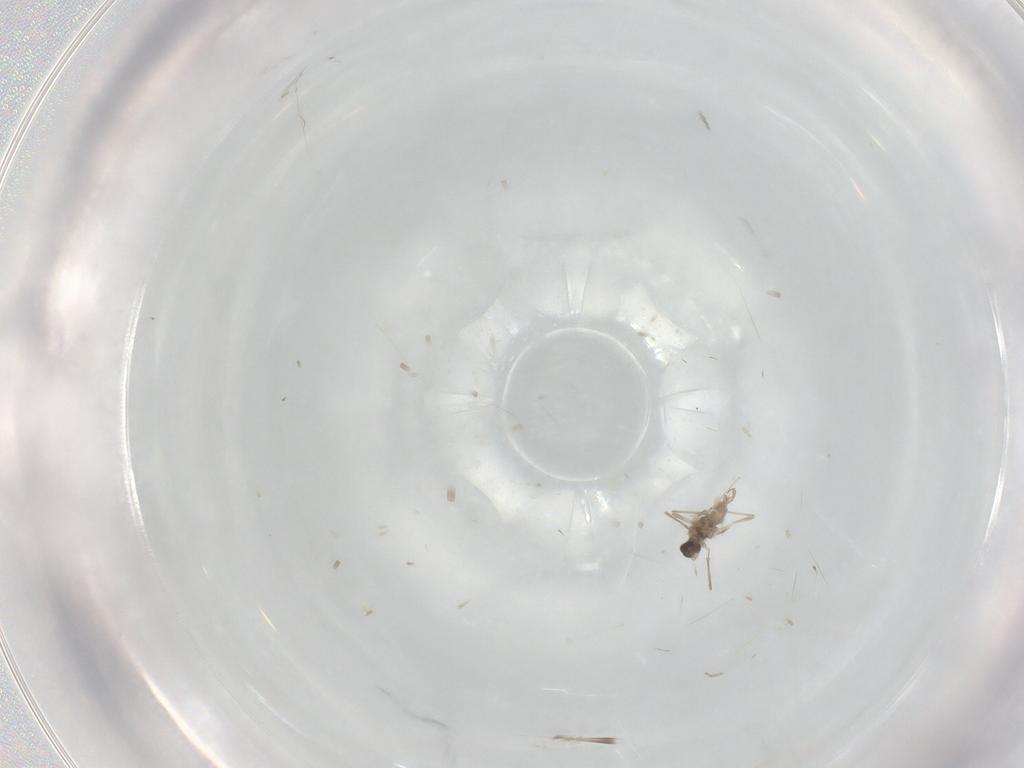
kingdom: Animalia
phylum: Arthropoda
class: Insecta
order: Diptera
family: Cecidomyiidae
